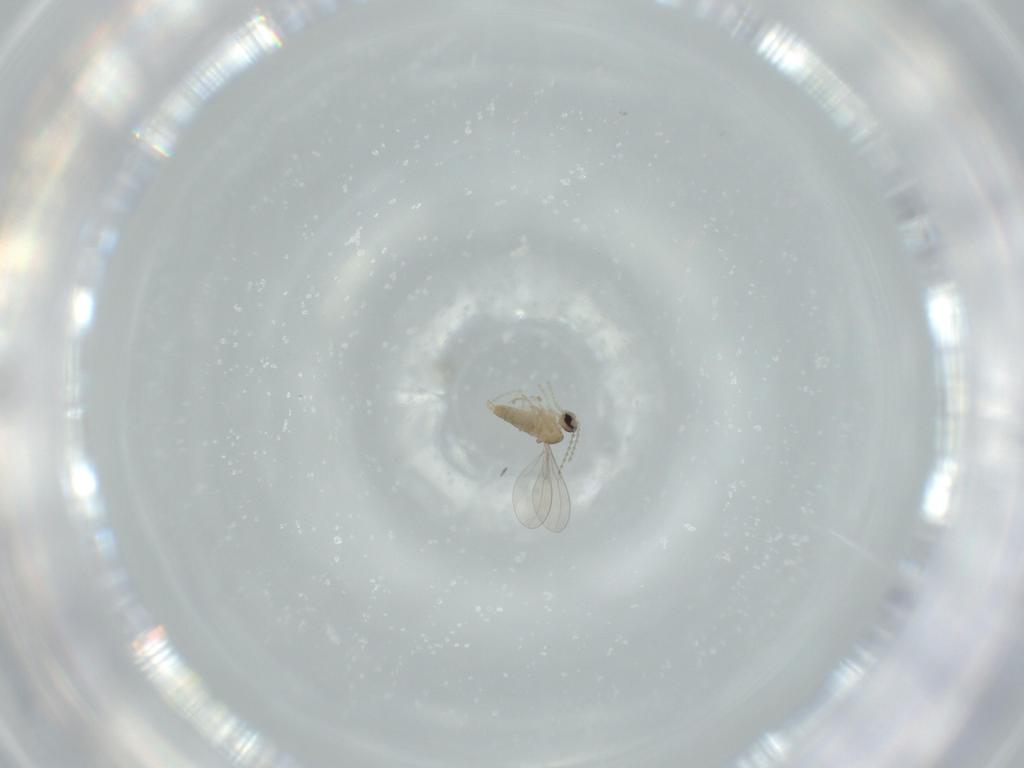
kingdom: Animalia
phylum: Arthropoda
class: Insecta
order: Diptera
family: Cecidomyiidae
